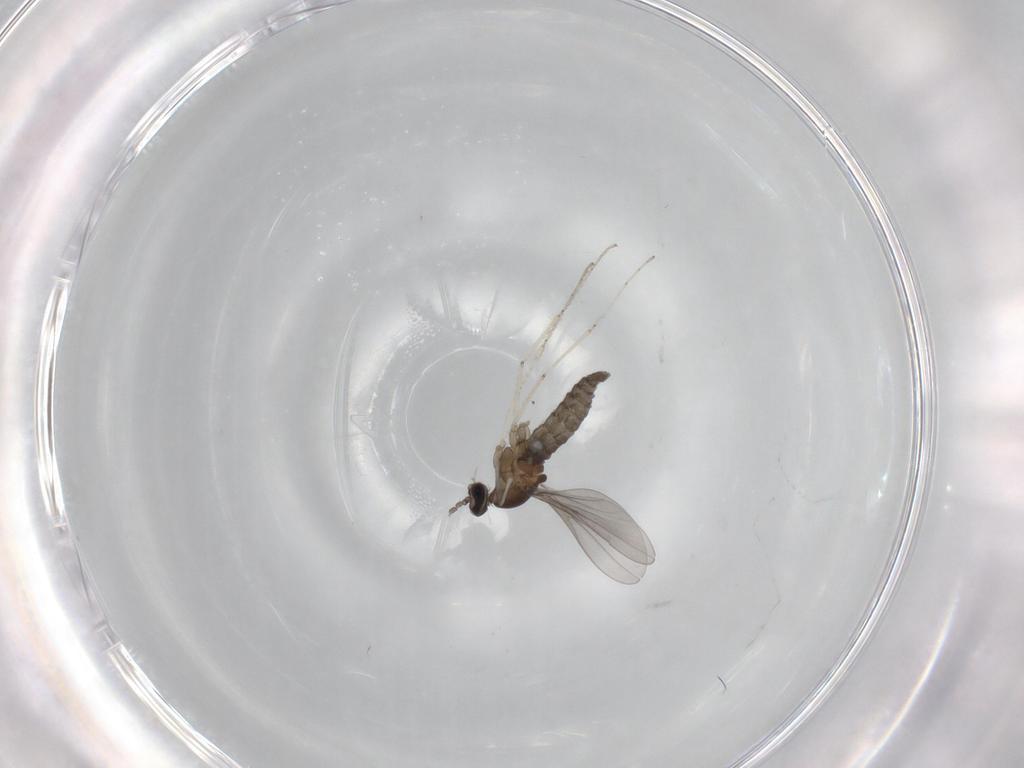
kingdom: Animalia
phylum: Arthropoda
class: Insecta
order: Diptera
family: Cecidomyiidae
